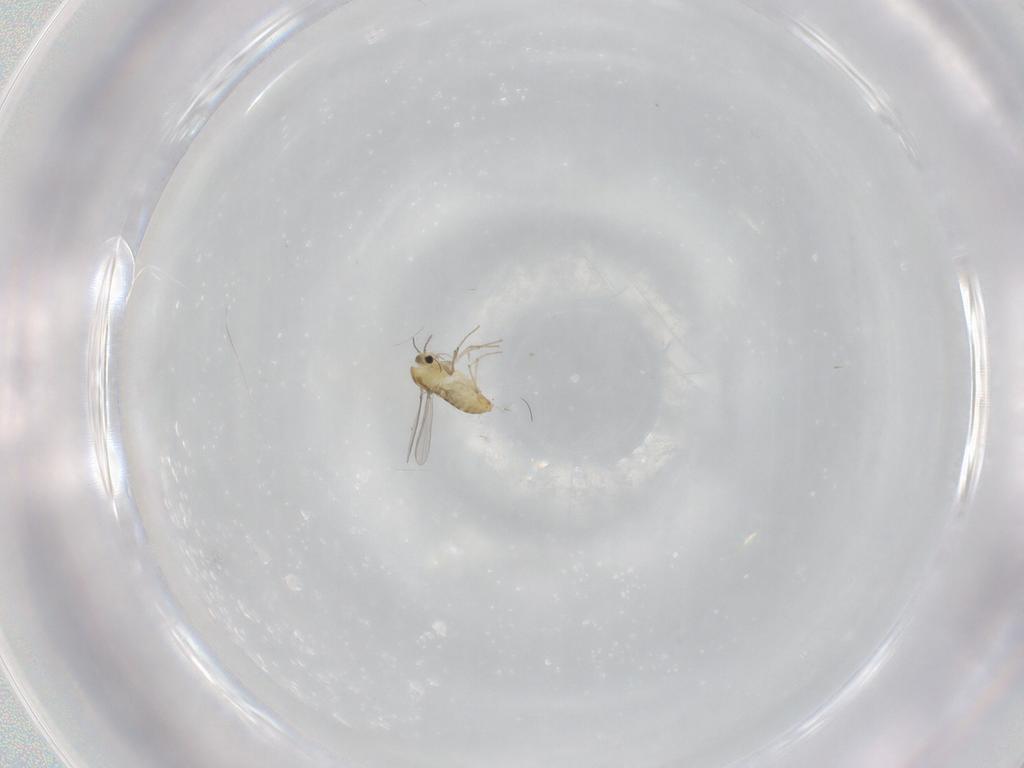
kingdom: Animalia
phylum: Arthropoda
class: Insecta
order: Diptera
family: Chironomidae
